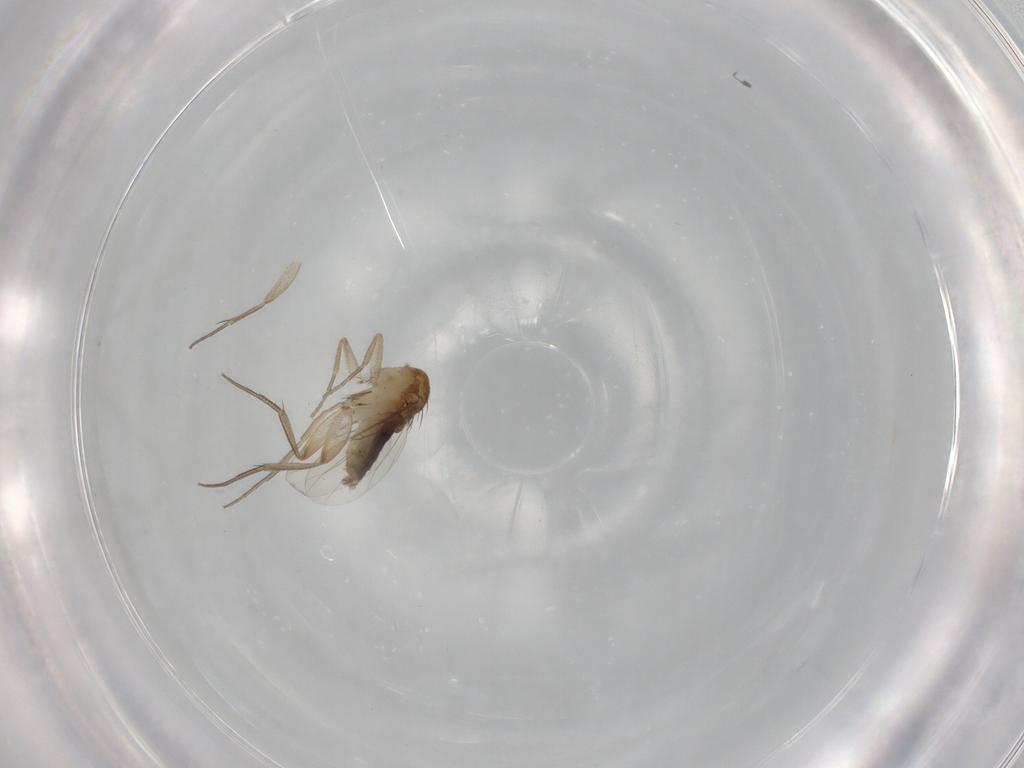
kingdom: Animalia
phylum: Arthropoda
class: Insecta
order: Diptera
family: Phoridae
